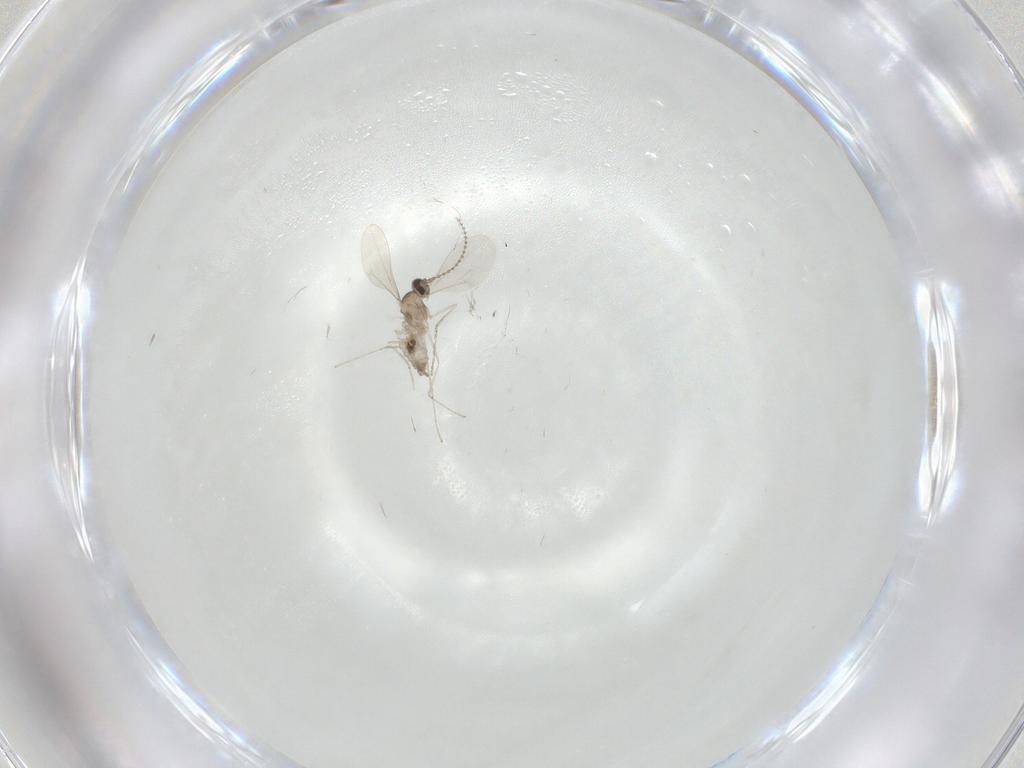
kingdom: Animalia
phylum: Arthropoda
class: Insecta
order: Diptera
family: Cecidomyiidae
